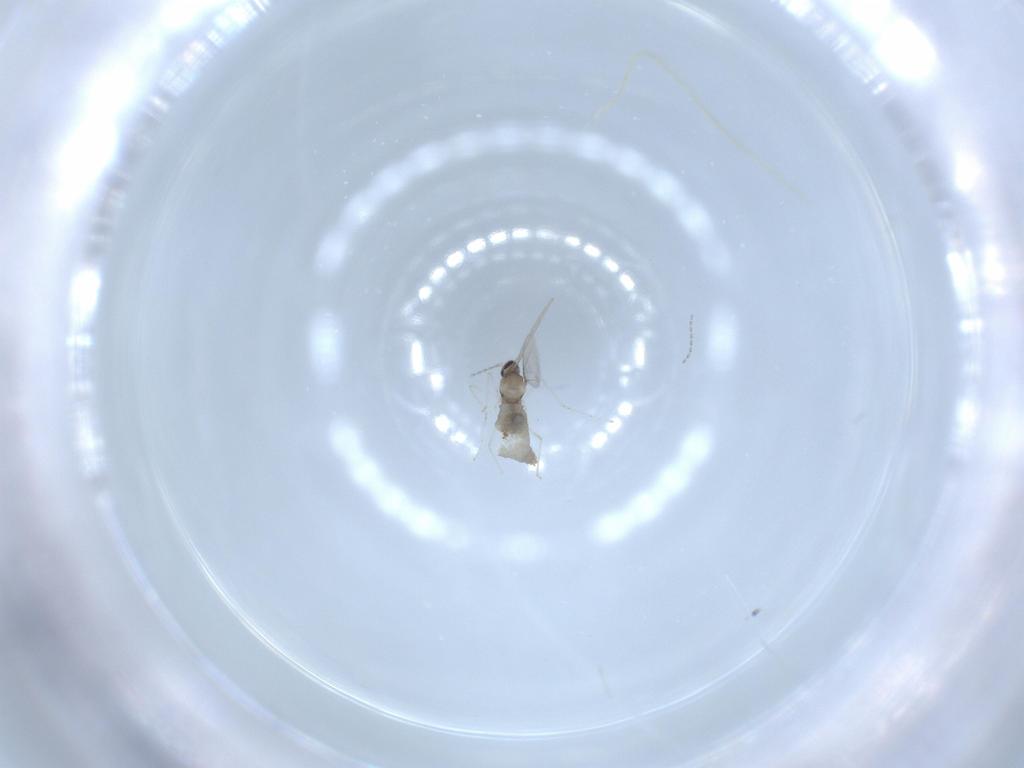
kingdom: Animalia
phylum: Arthropoda
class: Insecta
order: Diptera
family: Cecidomyiidae
